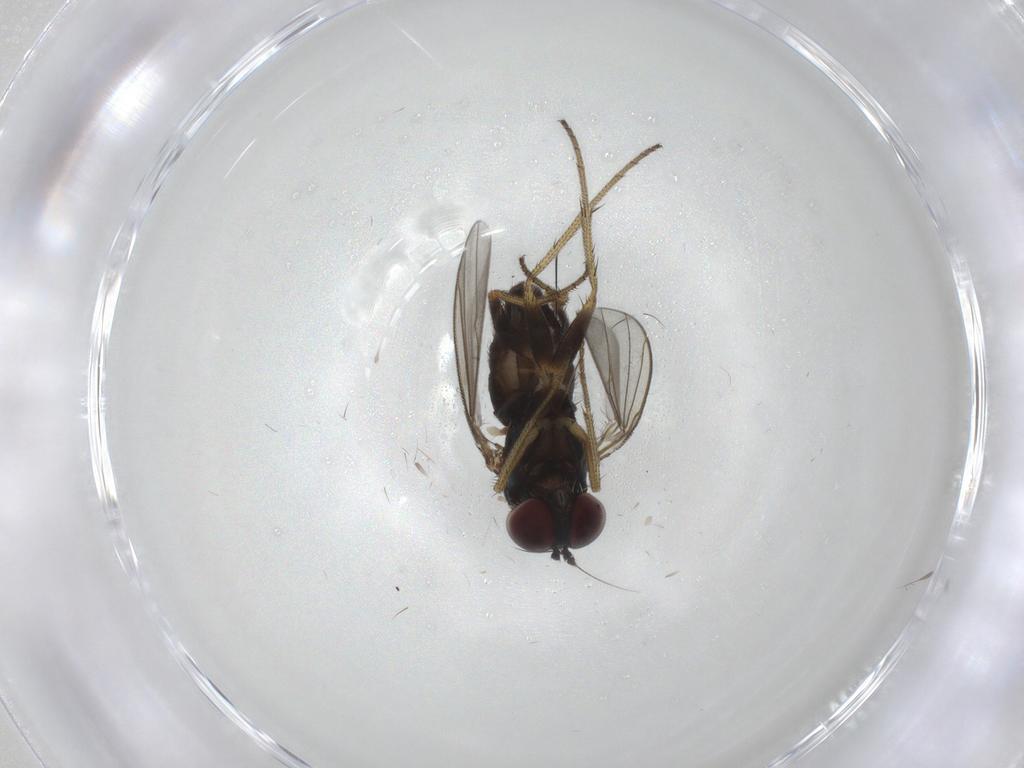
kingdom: Animalia
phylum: Arthropoda
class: Insecta
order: Diptera
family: Dolichopodidae
